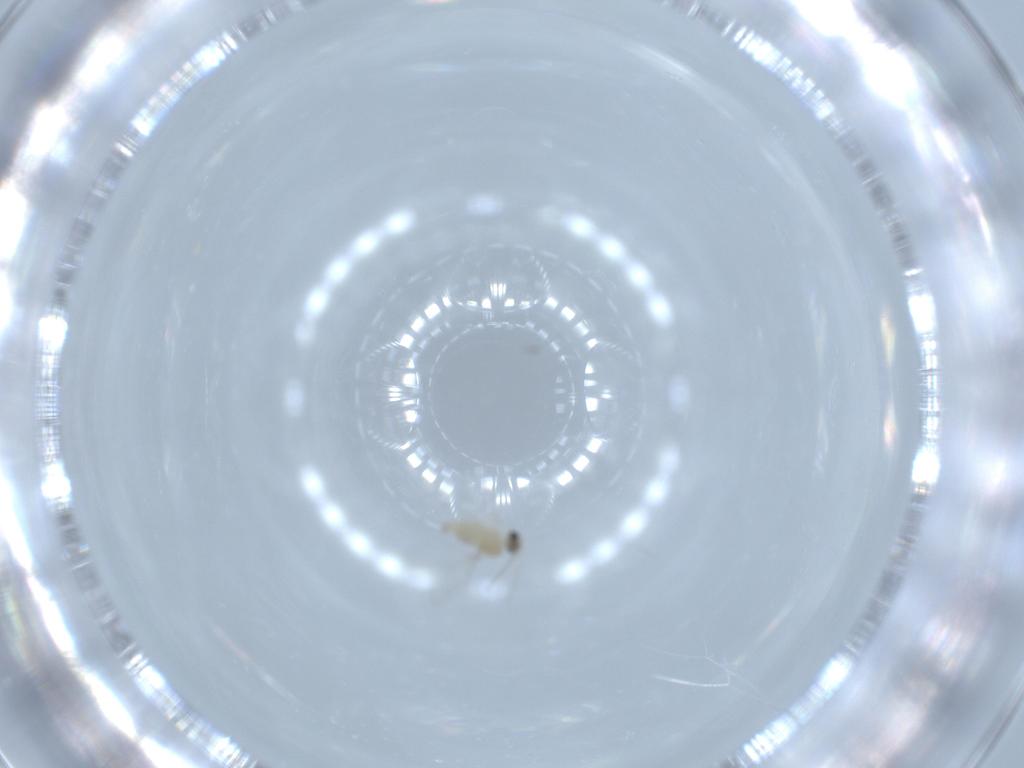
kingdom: Animalia
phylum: Arthropoda
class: Insecta
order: Diptera
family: Cecidomyiidae
